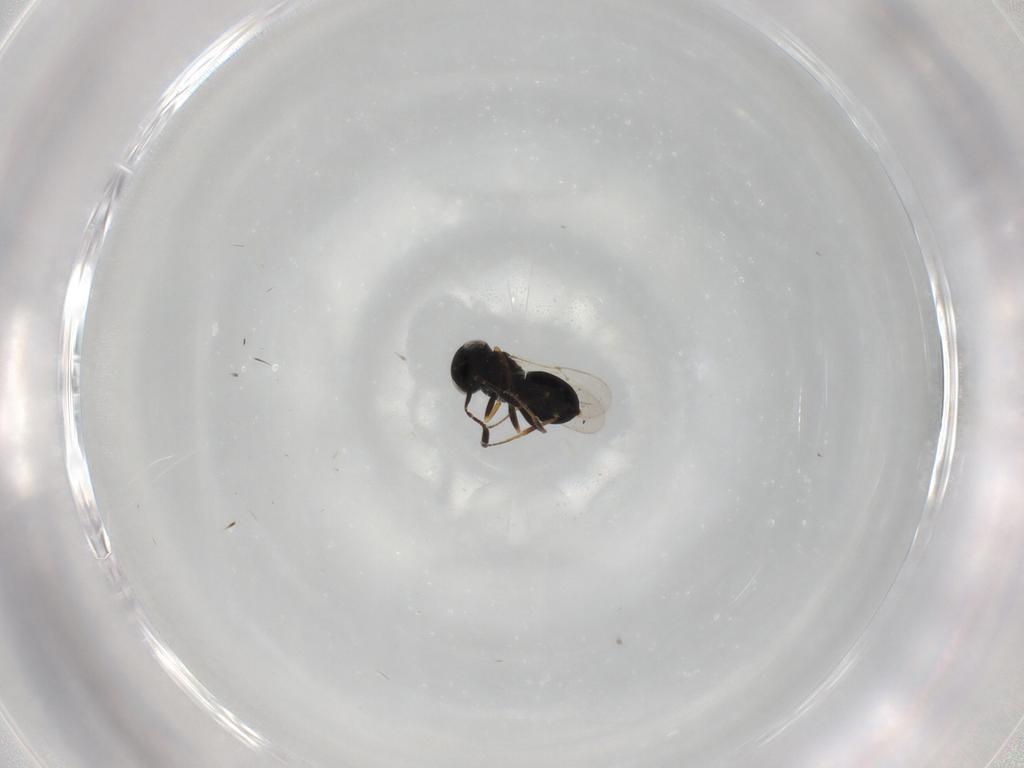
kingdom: Animalia
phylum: Arthropoda
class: Insecta
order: Hymenoptera
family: Scelionidae
